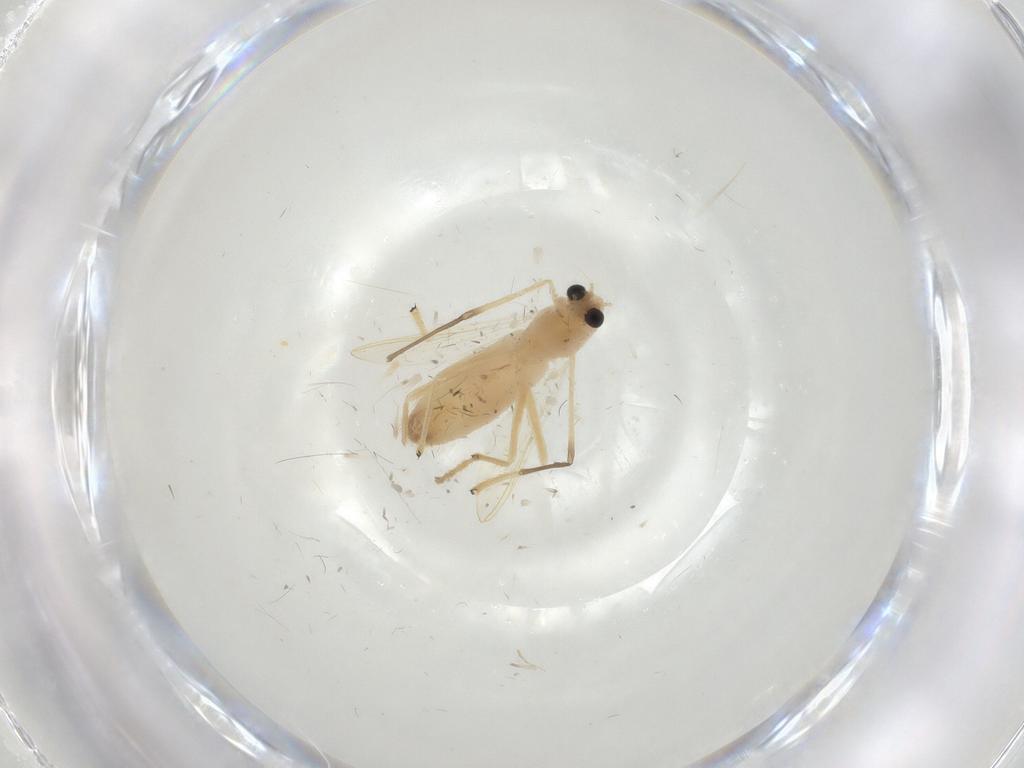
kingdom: Animalia
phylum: Arthropoda
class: Insecta
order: Diptera
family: Chironomidae
